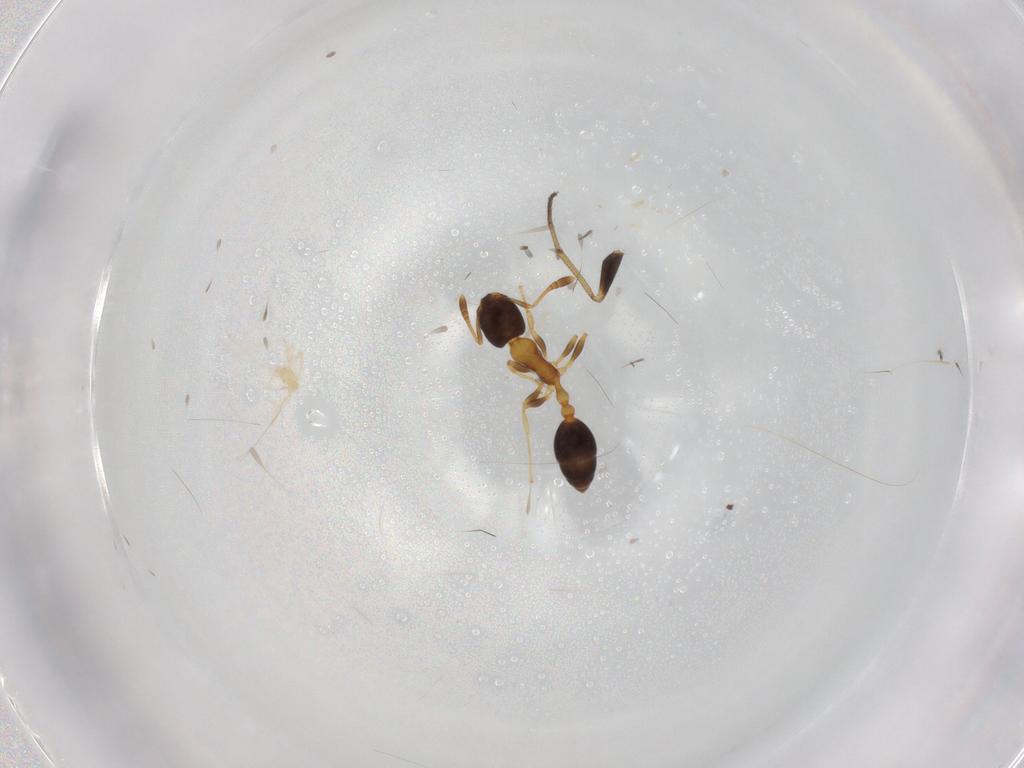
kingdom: Animalia
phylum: Arthropoda
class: Insecta
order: Hymenoptera
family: Formicidae
